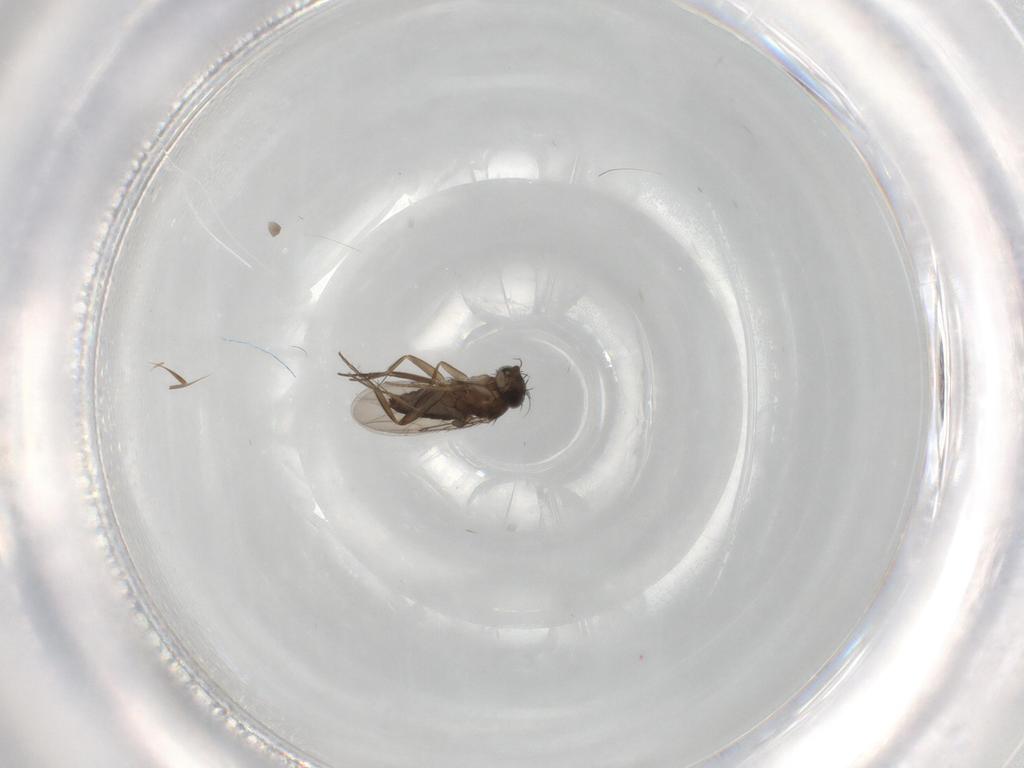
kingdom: Animalia
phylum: Arthropoda
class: Insecta
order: Diptera
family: Phoridae
